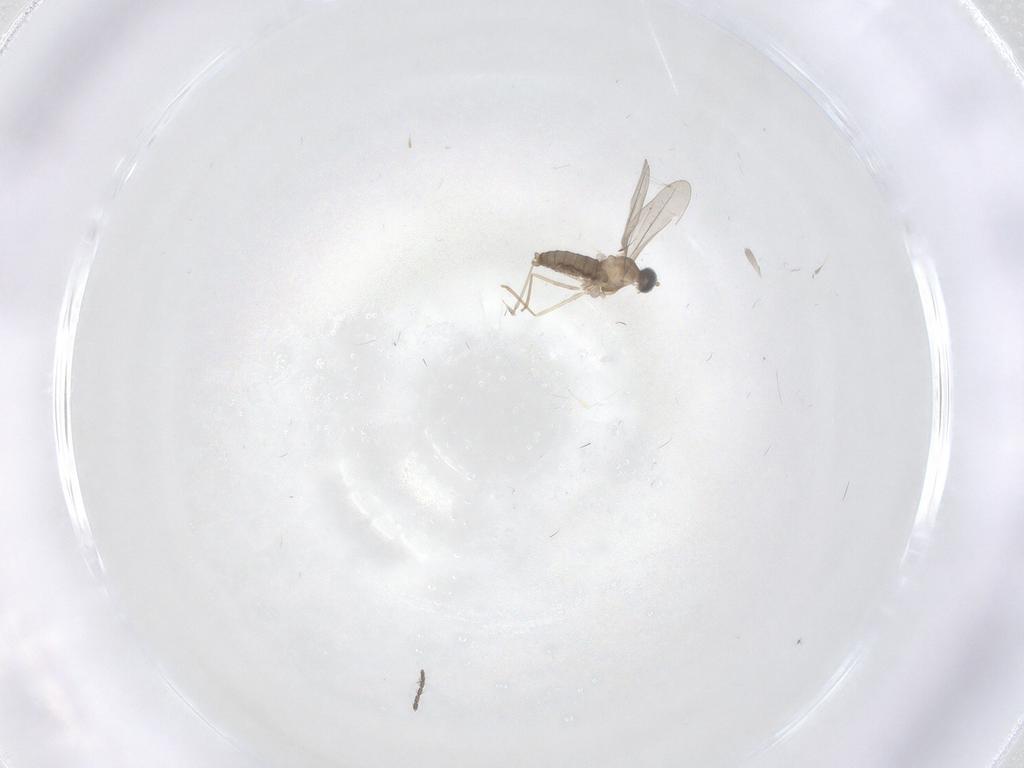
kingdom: Animalia
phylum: Arthropoda
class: Insecta
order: Diptera
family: Cecidomyiidae
